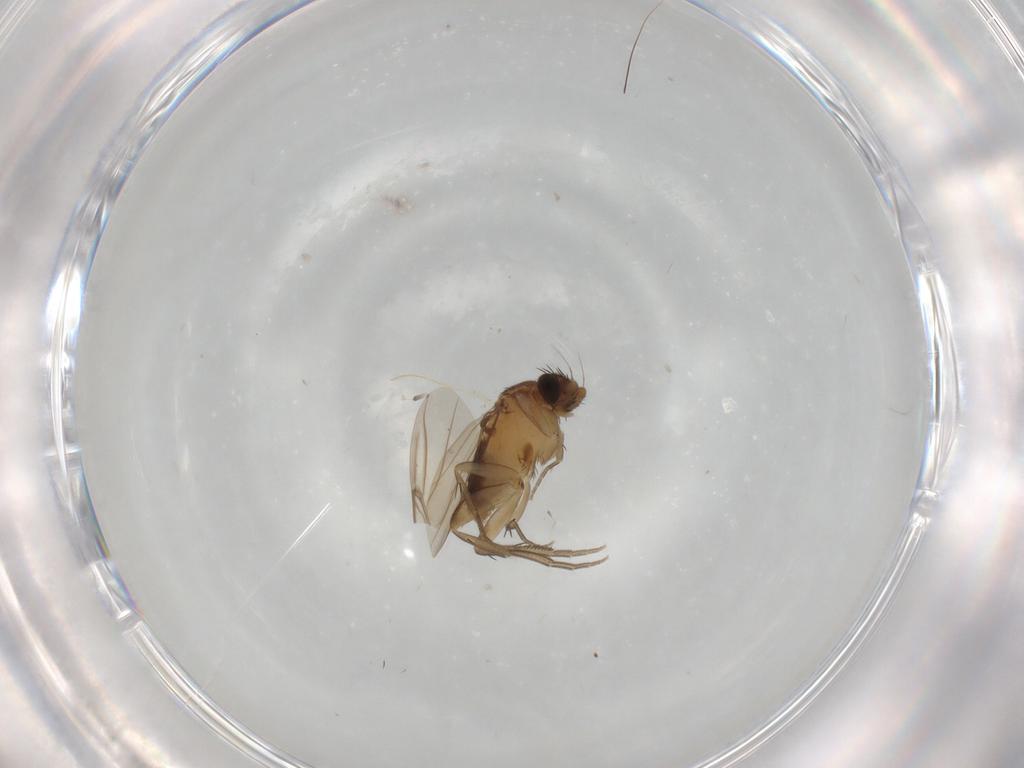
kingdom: Animalia
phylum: Arthropoda
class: Insecta
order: Diptera
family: Phoridae
